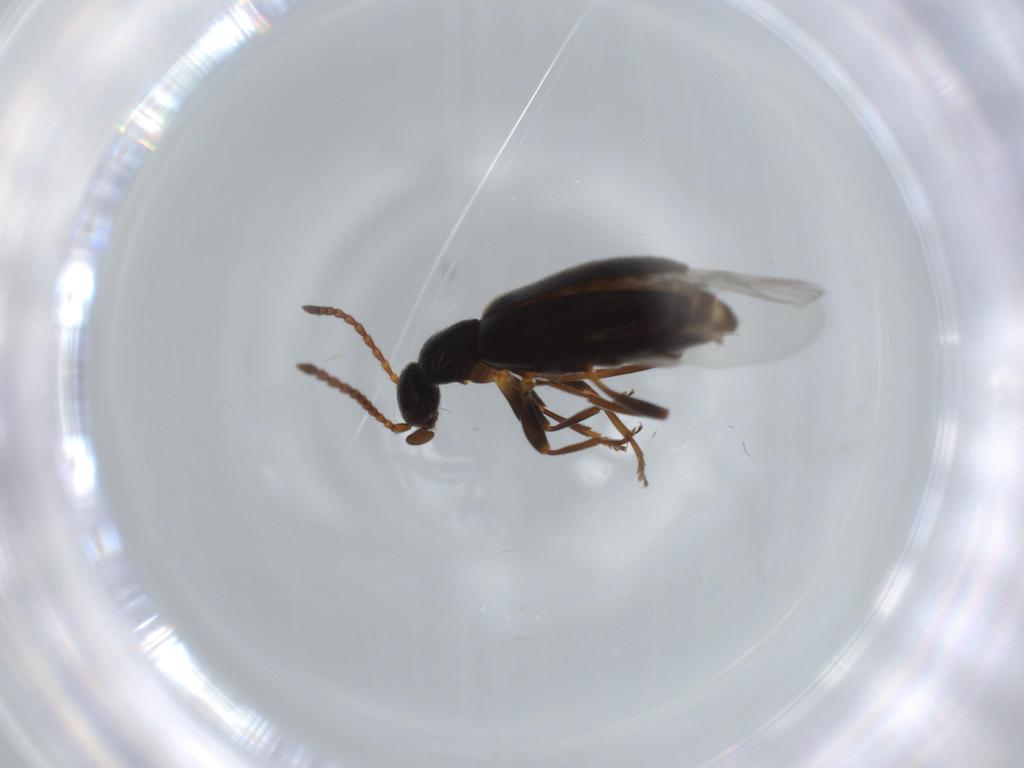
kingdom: Animalia
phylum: Arthropoda
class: Insecta
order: Coleoptera
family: Anthicidae
